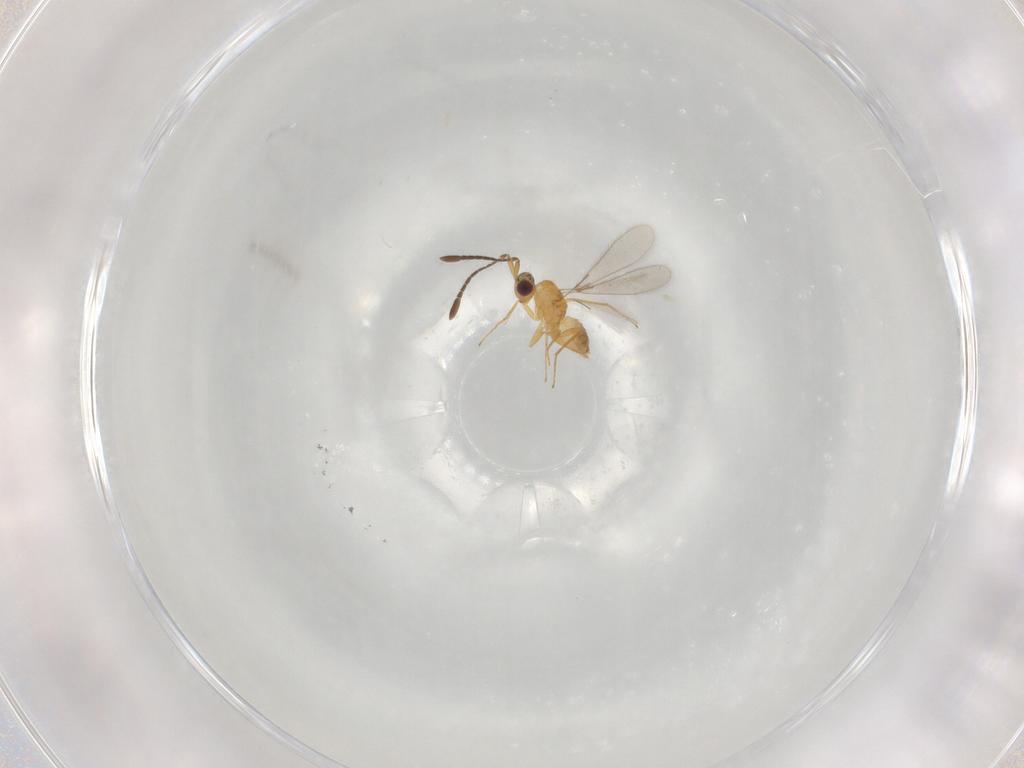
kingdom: Animalia
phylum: Arthropoda
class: Insecta
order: Hymenoptera
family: Mymaridae
